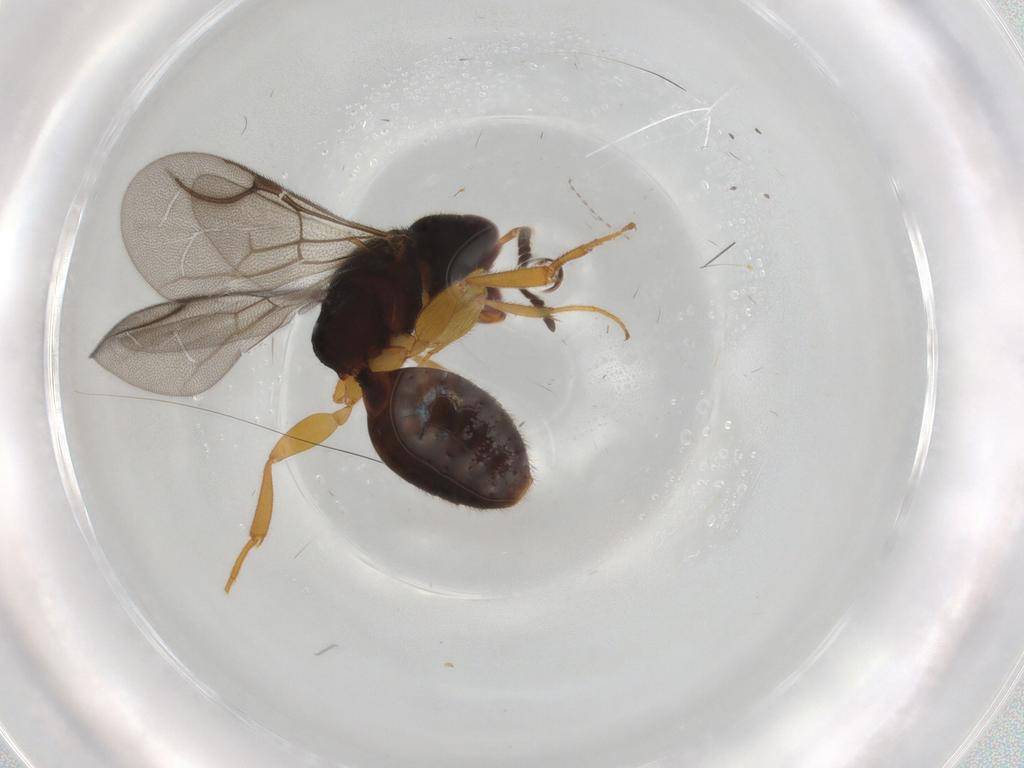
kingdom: Animalia
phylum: Arthropoda
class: Insecta
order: Hymenoptera
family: Bethylidae
